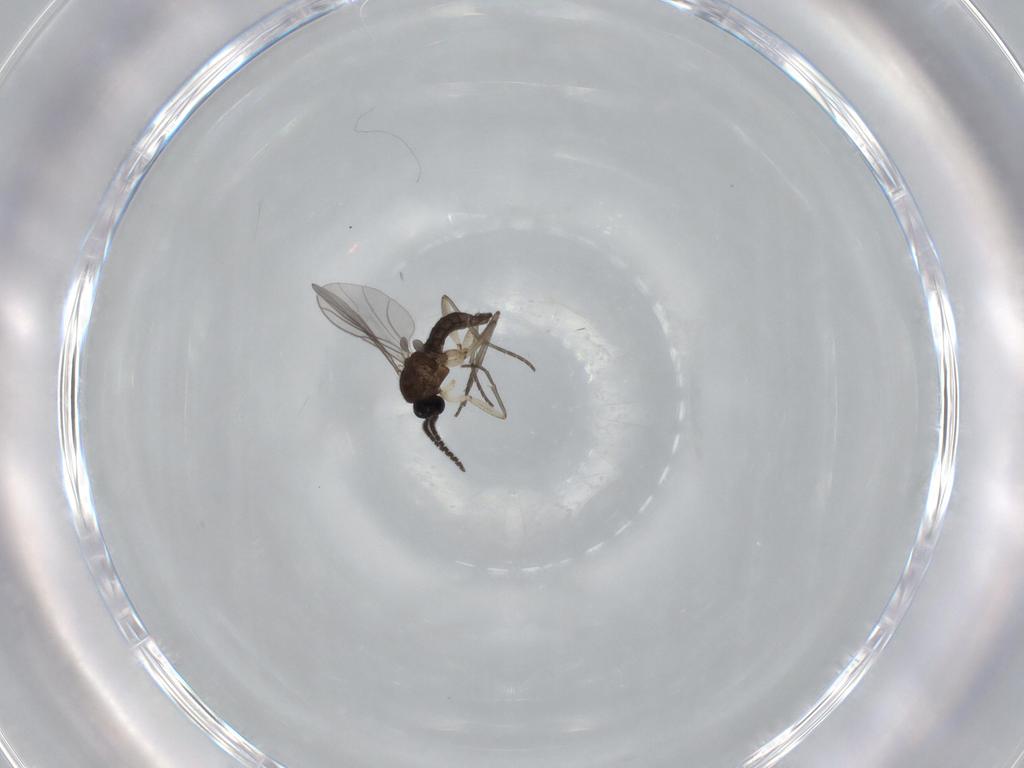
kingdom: Animalia
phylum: Arthropoda
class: Insecta
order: Diptera
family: Sciaridae
